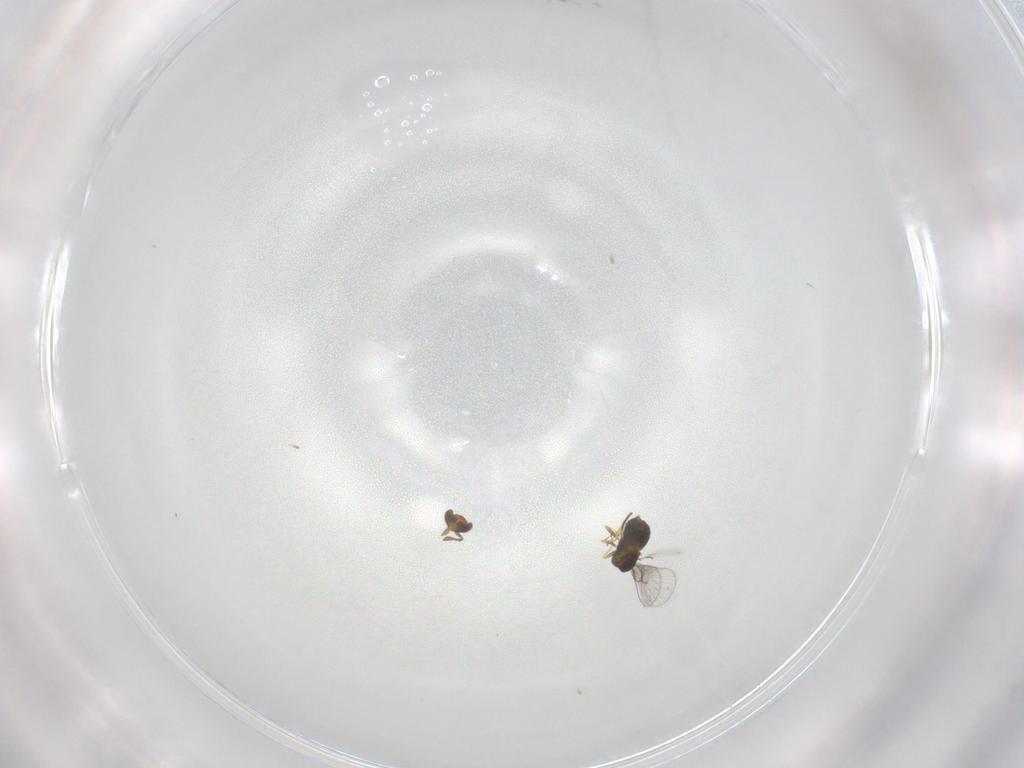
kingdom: Animalia
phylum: Arthropoda
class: Insecta
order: Hymenoptera
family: Trichogrammatidae
